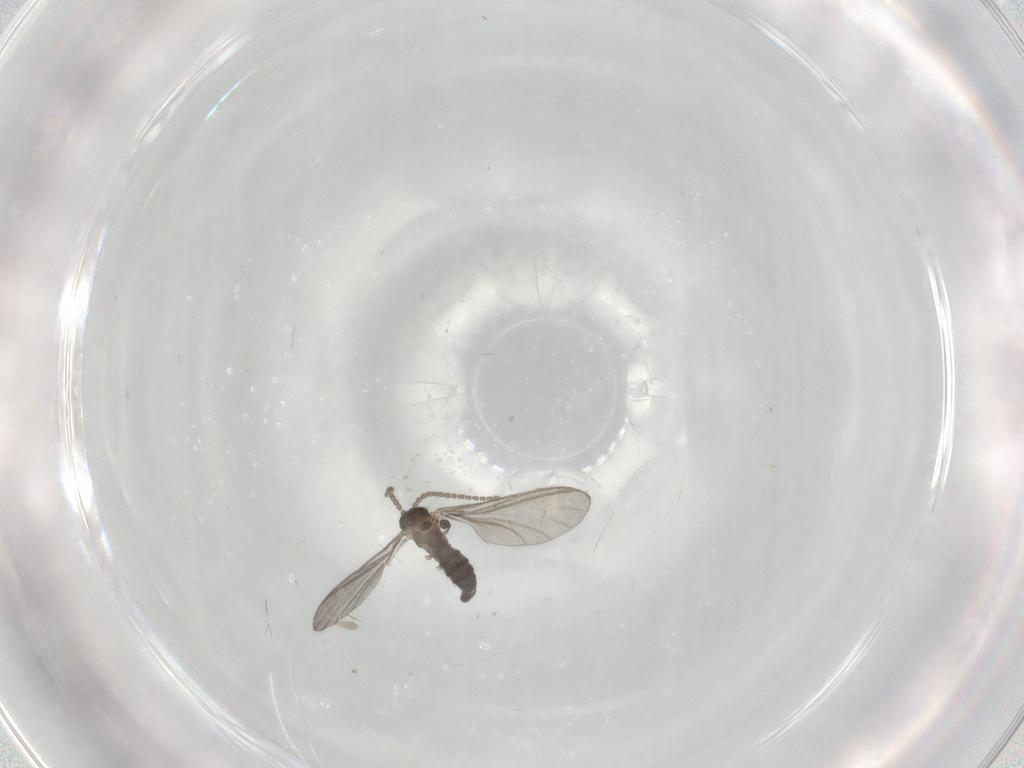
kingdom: Animalia
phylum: Arthropoda
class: Insecta
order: Diptera
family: Sciaridae
